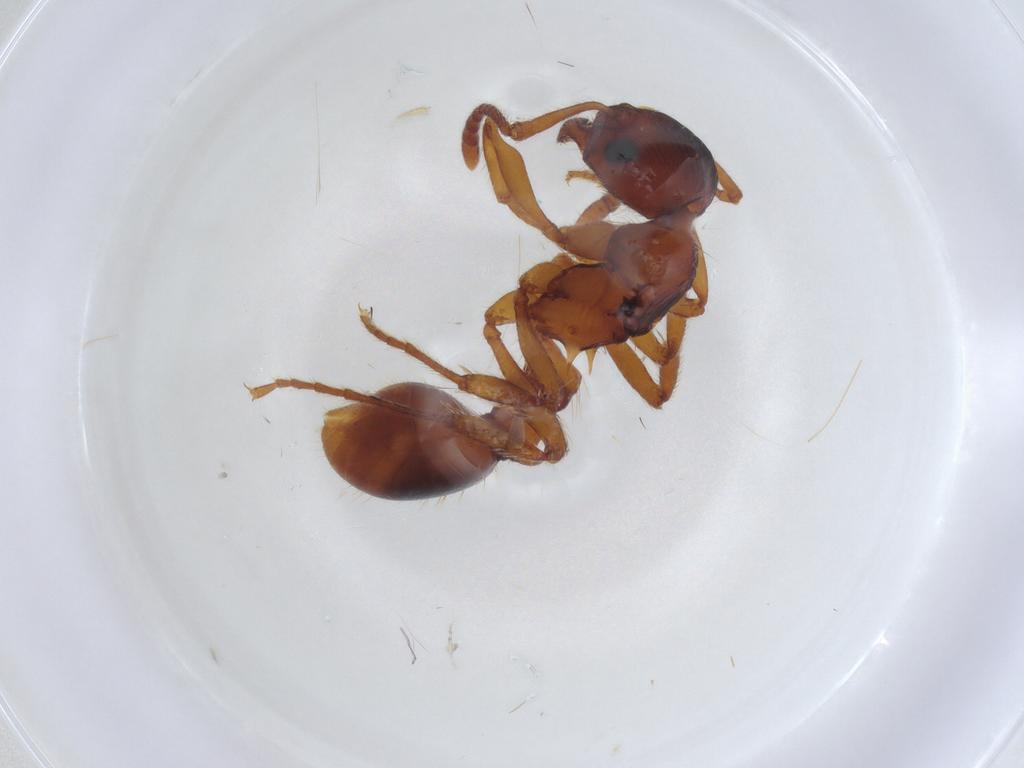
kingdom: Animalia
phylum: Arthropoda
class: Insecta
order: Hymenoptera
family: Formicidae
